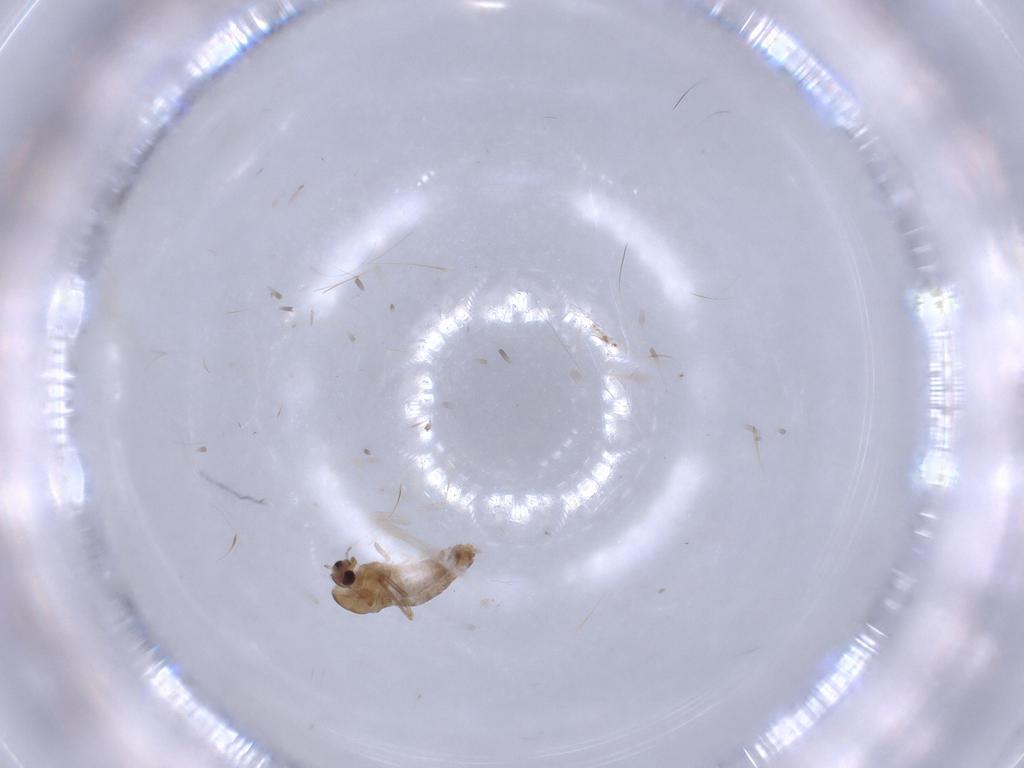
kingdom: Animalia
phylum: Arthropoda
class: Insecta
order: Diptera
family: Chironomidae
